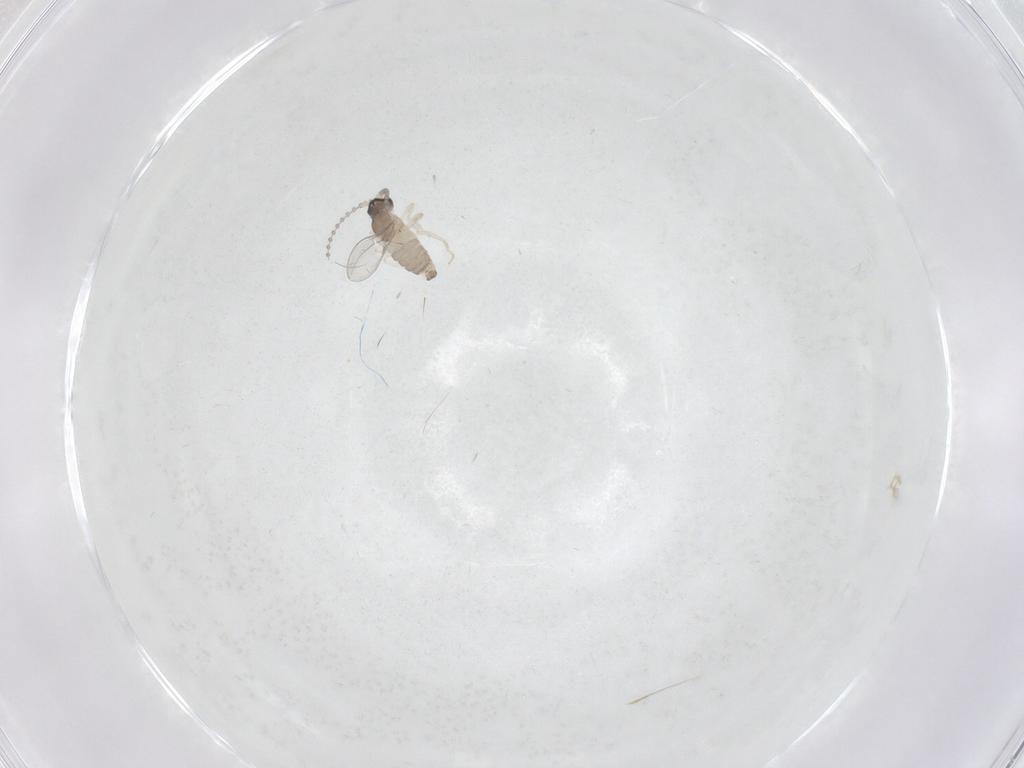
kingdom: Animalia
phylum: Arthropoda
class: Insecta
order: Diptera
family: Cecidomyiidae
